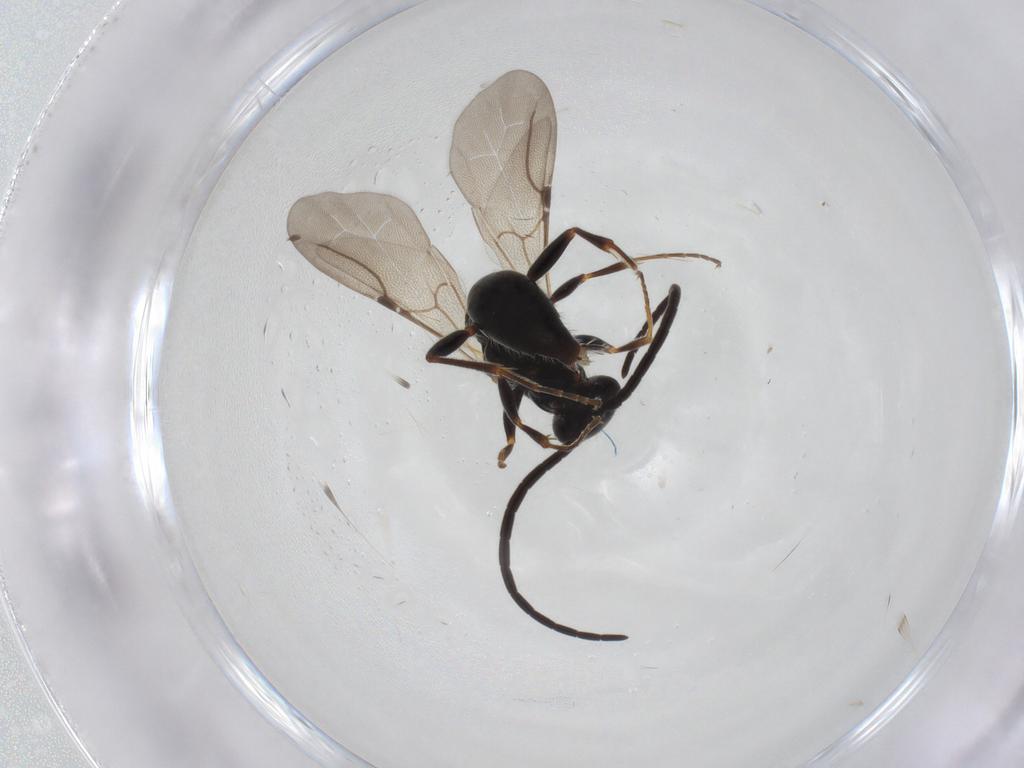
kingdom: Animalia
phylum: Arthropoda
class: Insecta
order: Hymenoptera
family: Bethylidae
